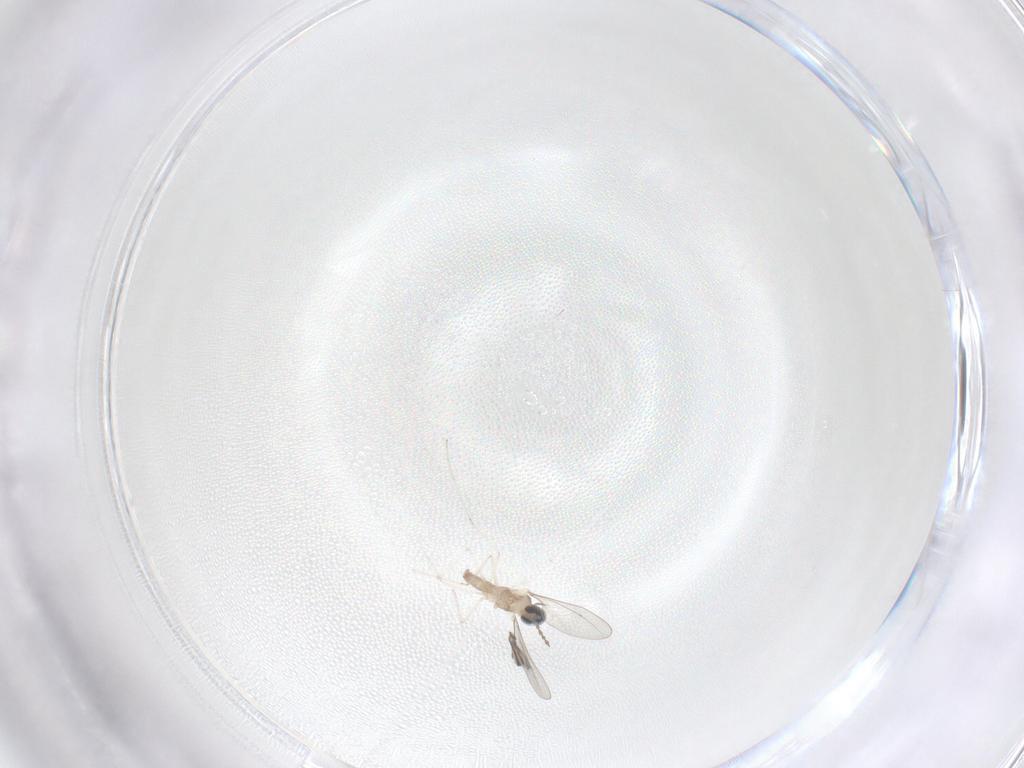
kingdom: Animalia
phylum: Arthropoda
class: Insecta
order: Diptera
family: Cecidomyiidae
